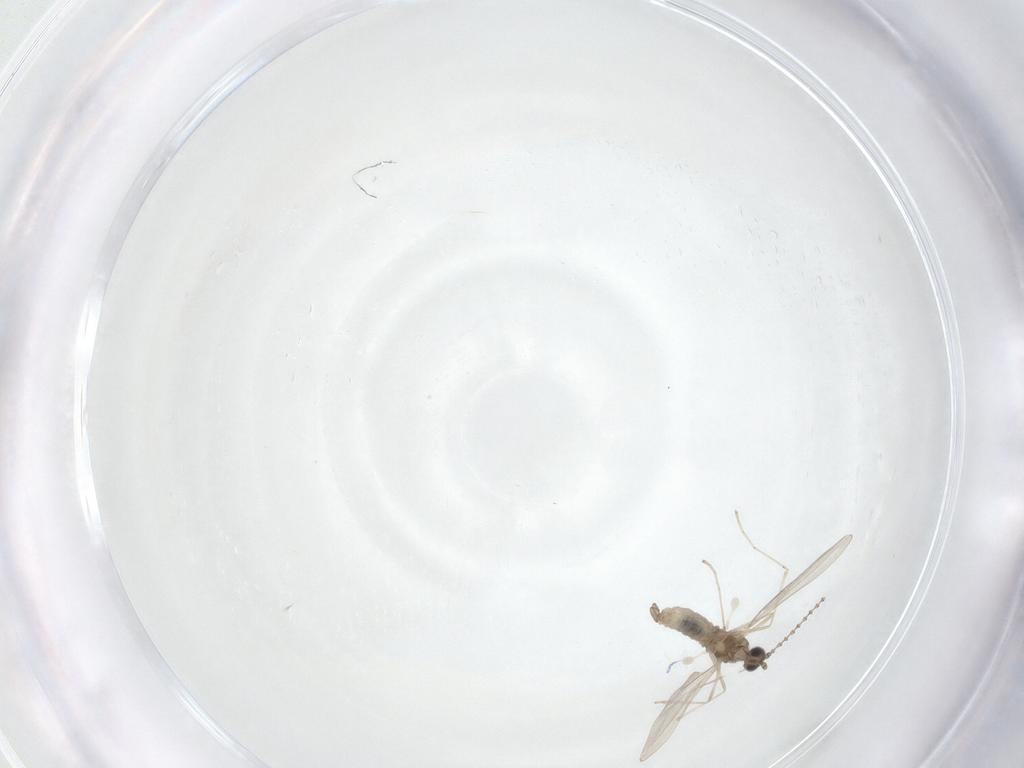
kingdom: Animalia
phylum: Arthropoda
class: Insecta
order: Diptera
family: Cecidomyiidae
